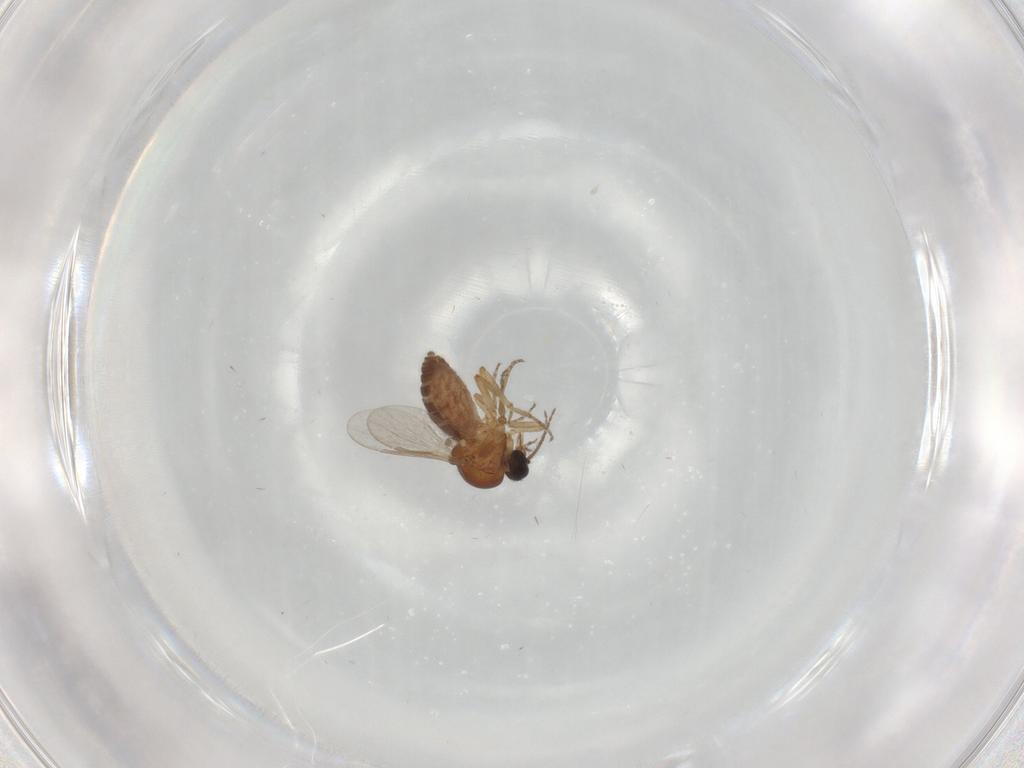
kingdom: Animalia
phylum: Arthropoda
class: Insecta
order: Diptera
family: Ceratopogonidae
